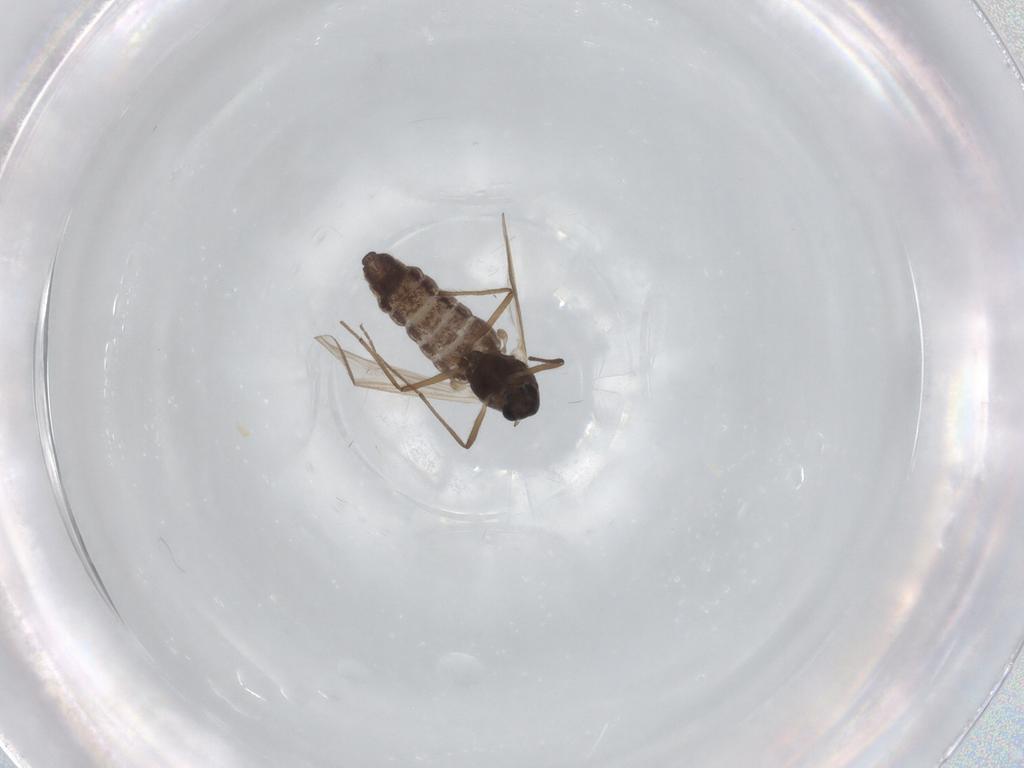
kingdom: Animalia
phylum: Arthropoda
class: Insecta
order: Diptera
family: Chironomidae
